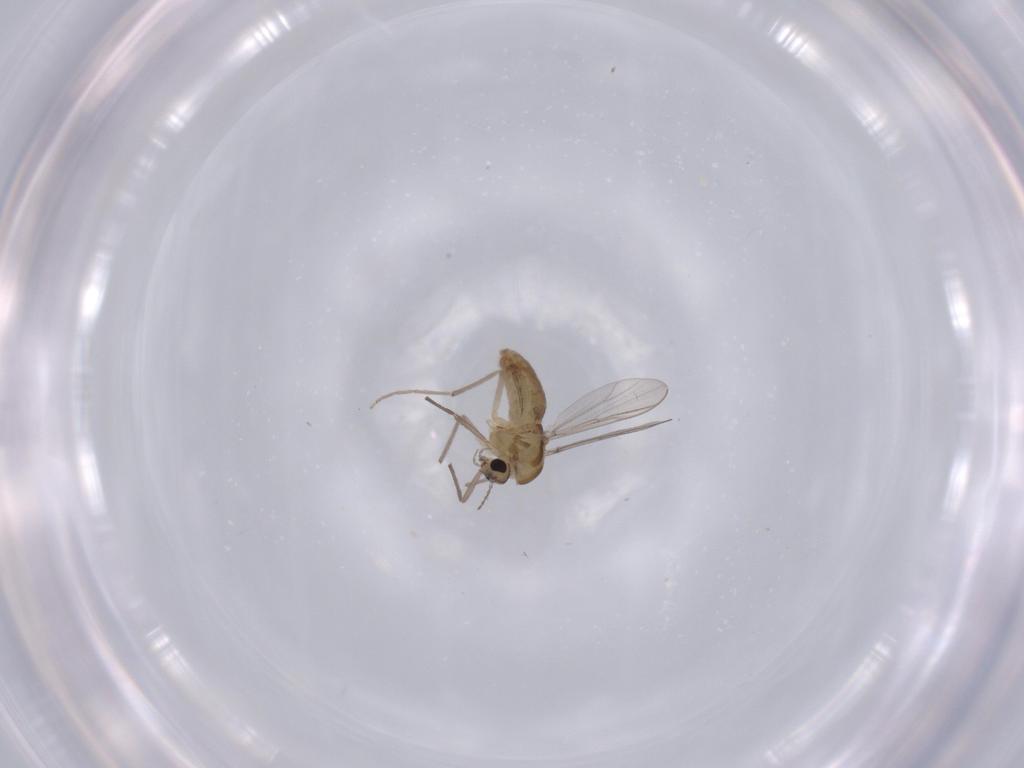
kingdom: Animalia
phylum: Arthropoda
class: Insecta
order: Diptera
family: Chironomidae
